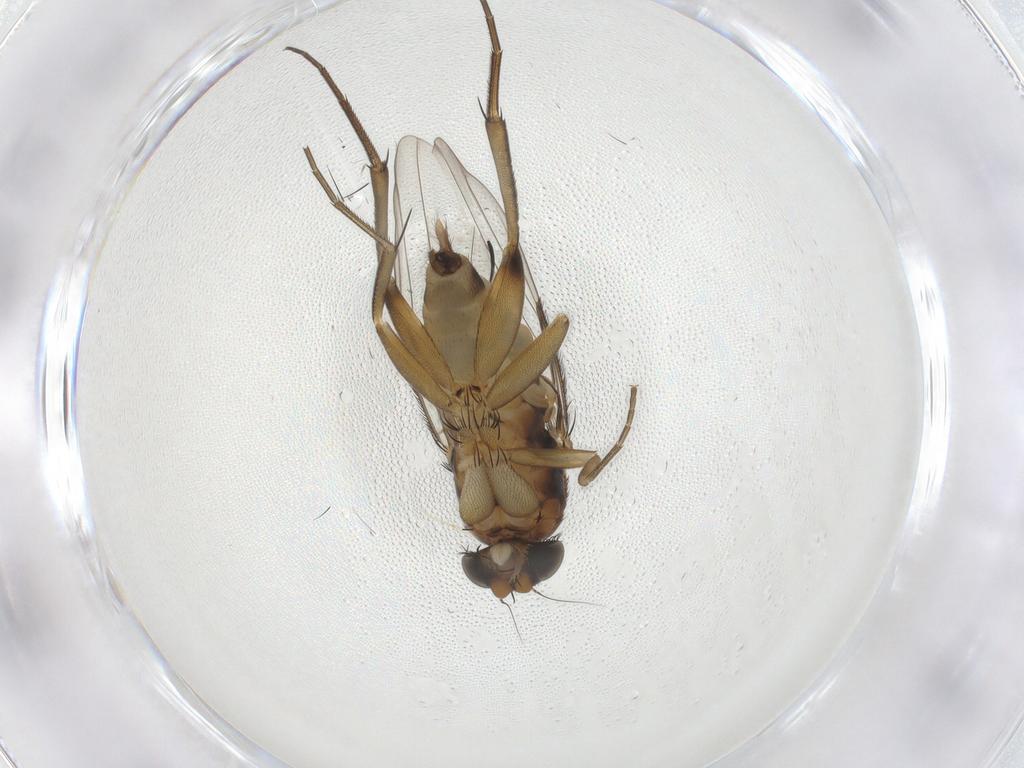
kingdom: Animalia
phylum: Arthropoda
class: Insecta
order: Diptera
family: Phoridae
